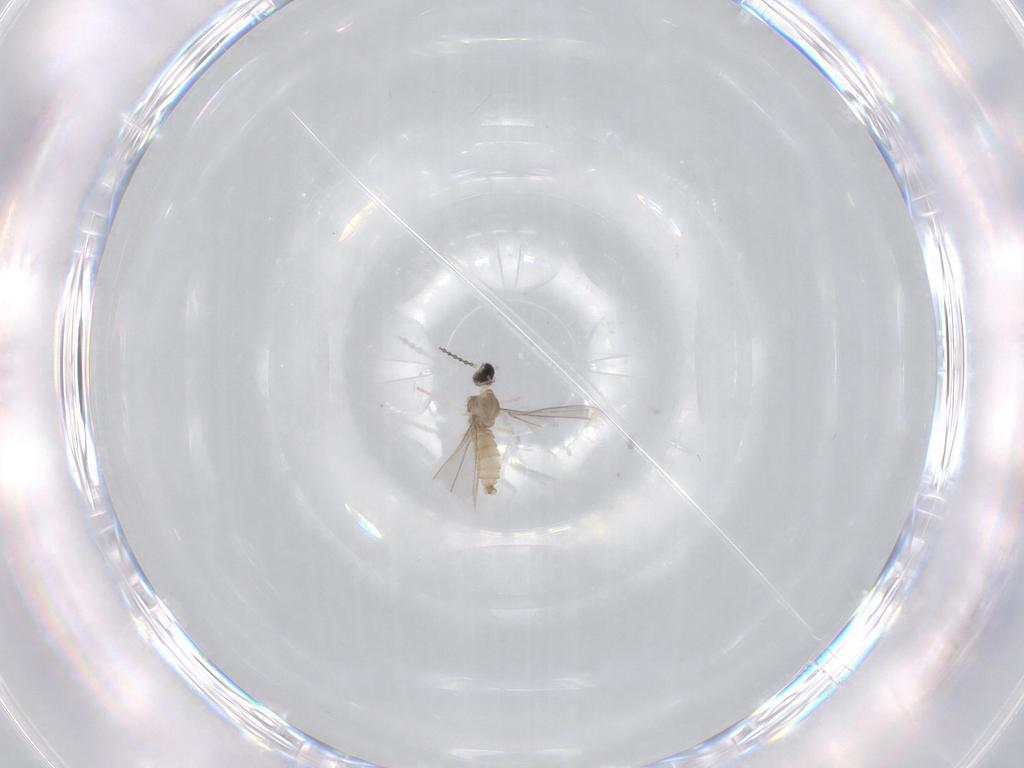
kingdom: Animalia
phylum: Arthropoda
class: Insecta
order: Diptera
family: Cecidomyiidae
